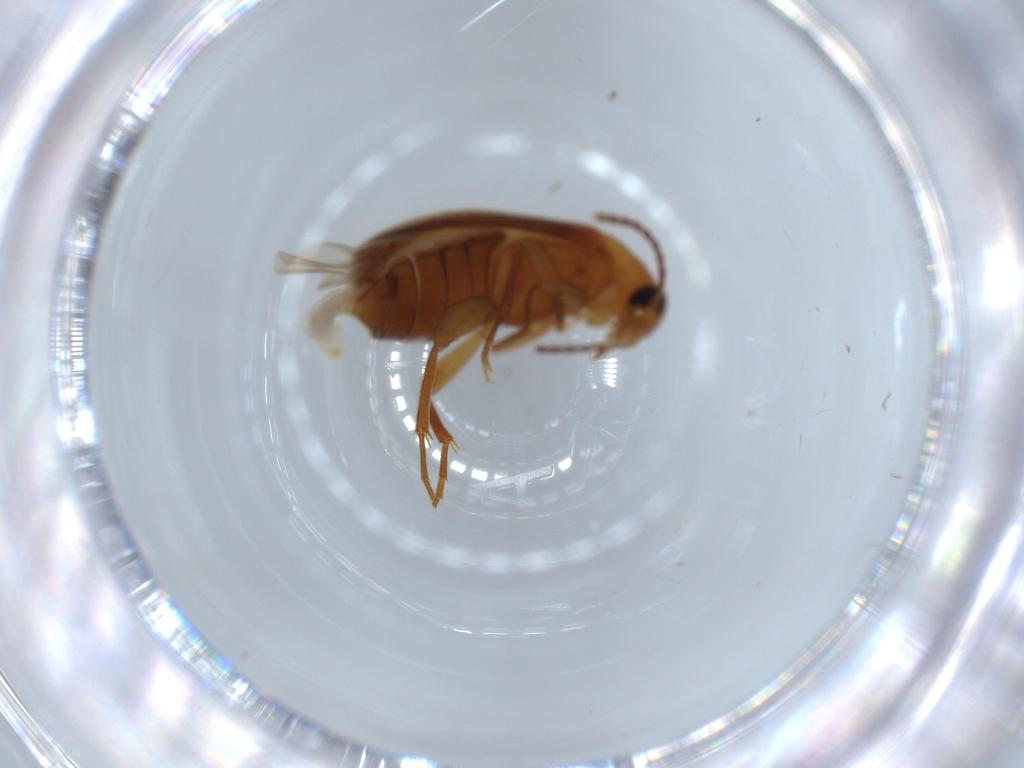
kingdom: Animalia
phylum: Arthropoda
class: Insecta
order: Coleoptera
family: Scraptiidae
